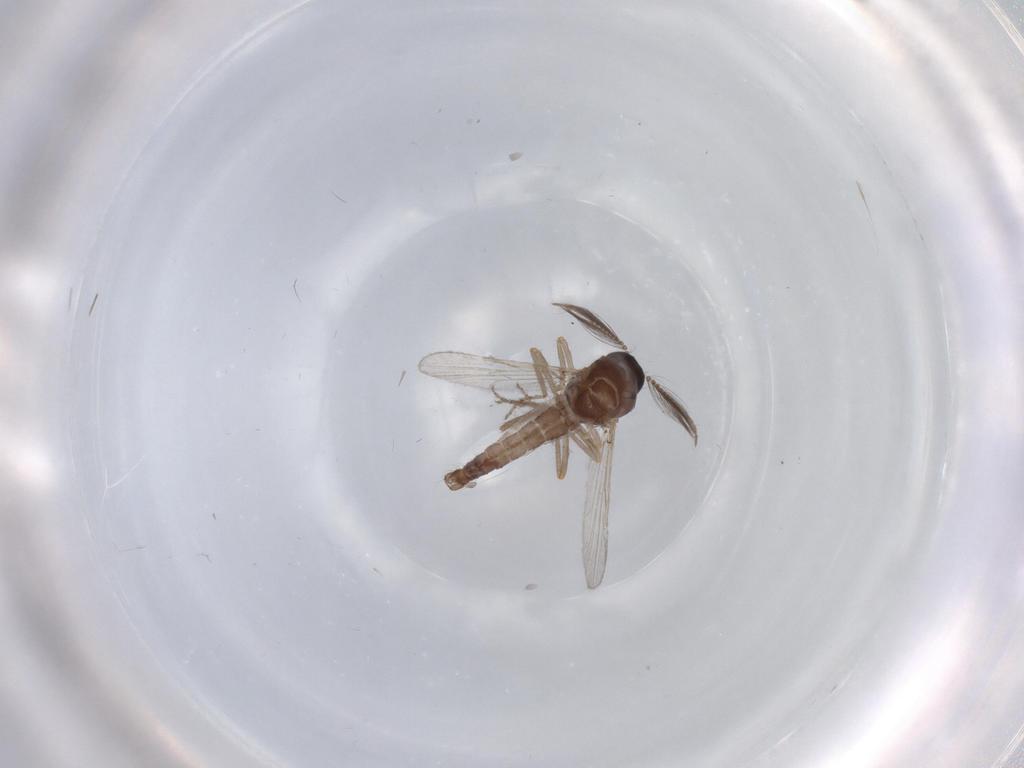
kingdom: Animalia
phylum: Arthropoda
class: Insecta
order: Diptera
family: Ceratopogonidae
